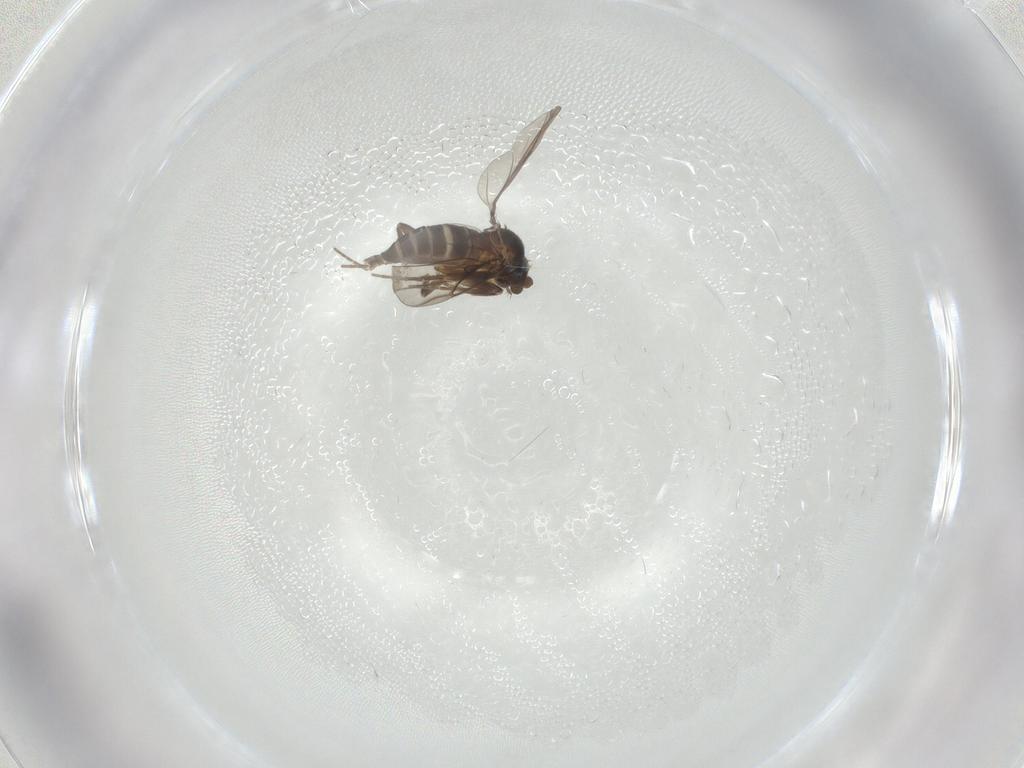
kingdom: Animalia
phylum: Arthropoda
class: Insecta
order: Diptera
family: Phoridae
